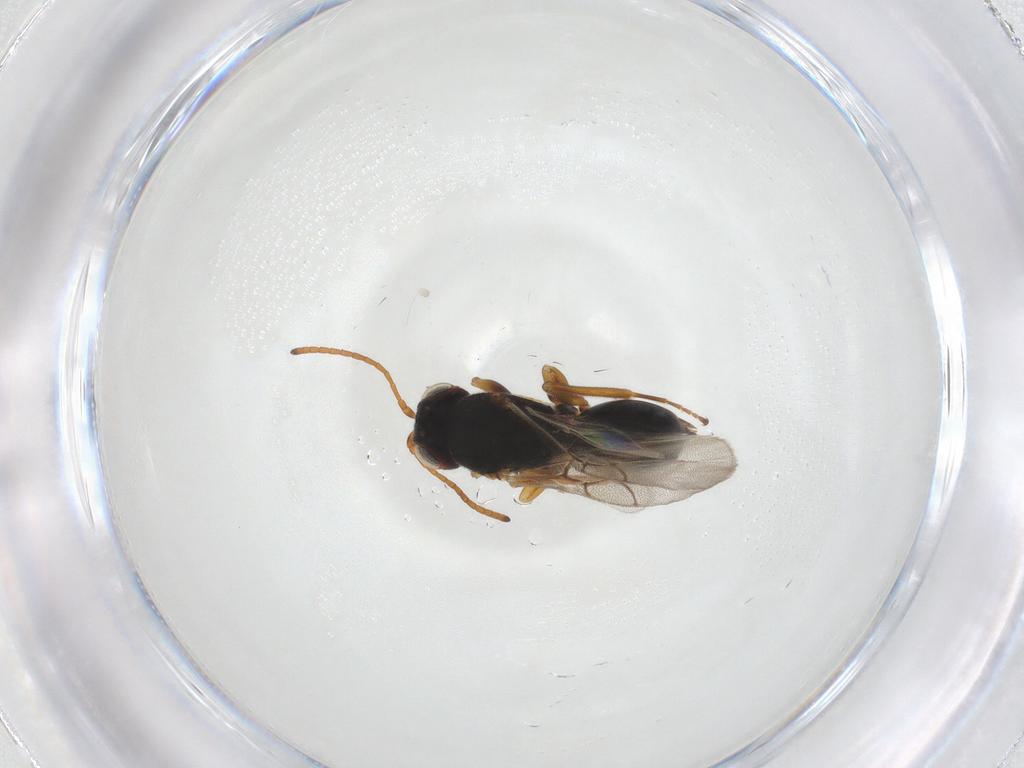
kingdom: Animalia
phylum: Arthropoda
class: Insecta
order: Hymenoptera
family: Cynipidae
